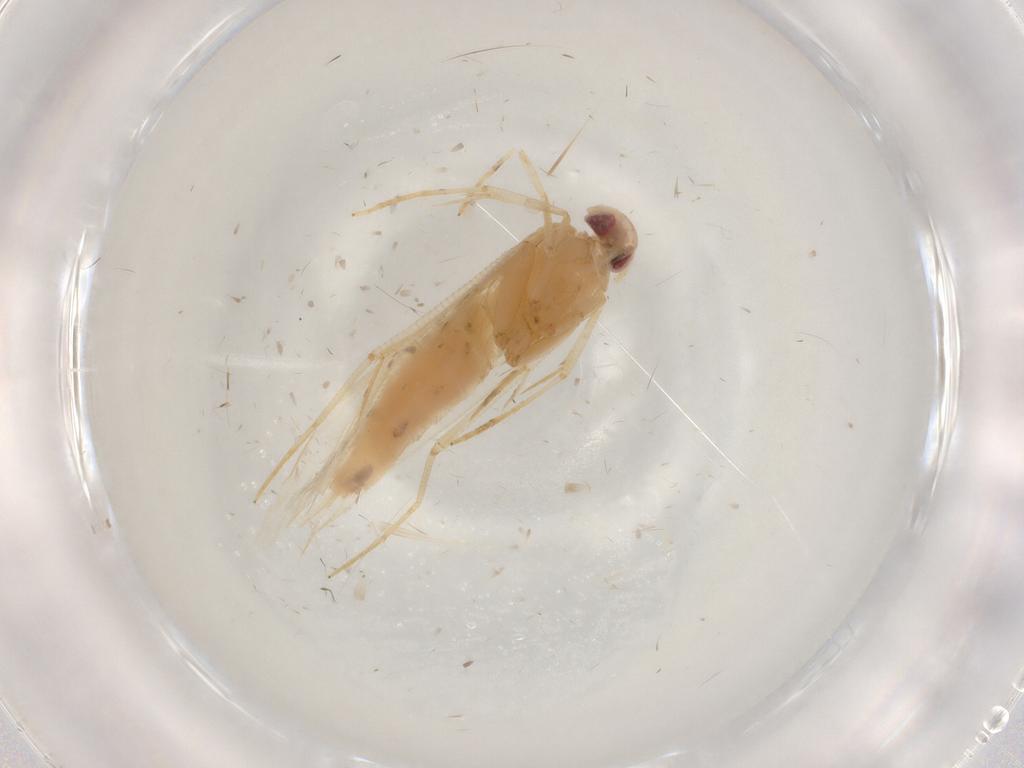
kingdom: Animalia
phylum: Arthropoda
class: Insecta
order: Lepidoptera
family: Cosmopterigidae
